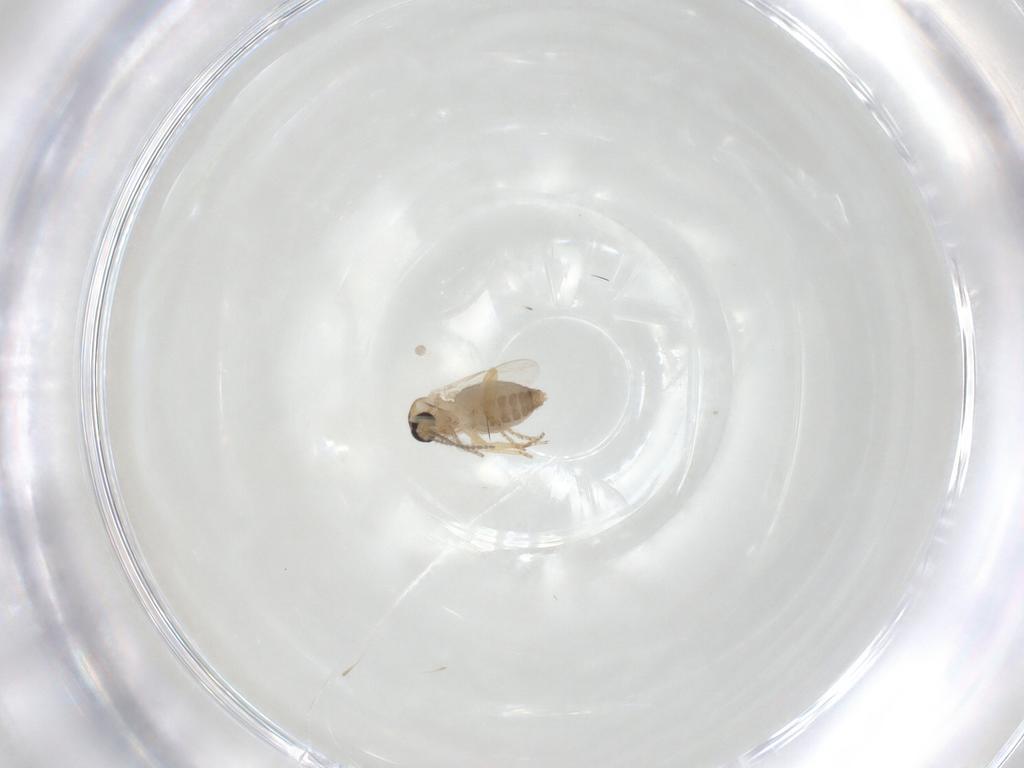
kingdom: Animalia
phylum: Arthropoda
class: Insecta
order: Diptera
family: Ceratopogonidae
